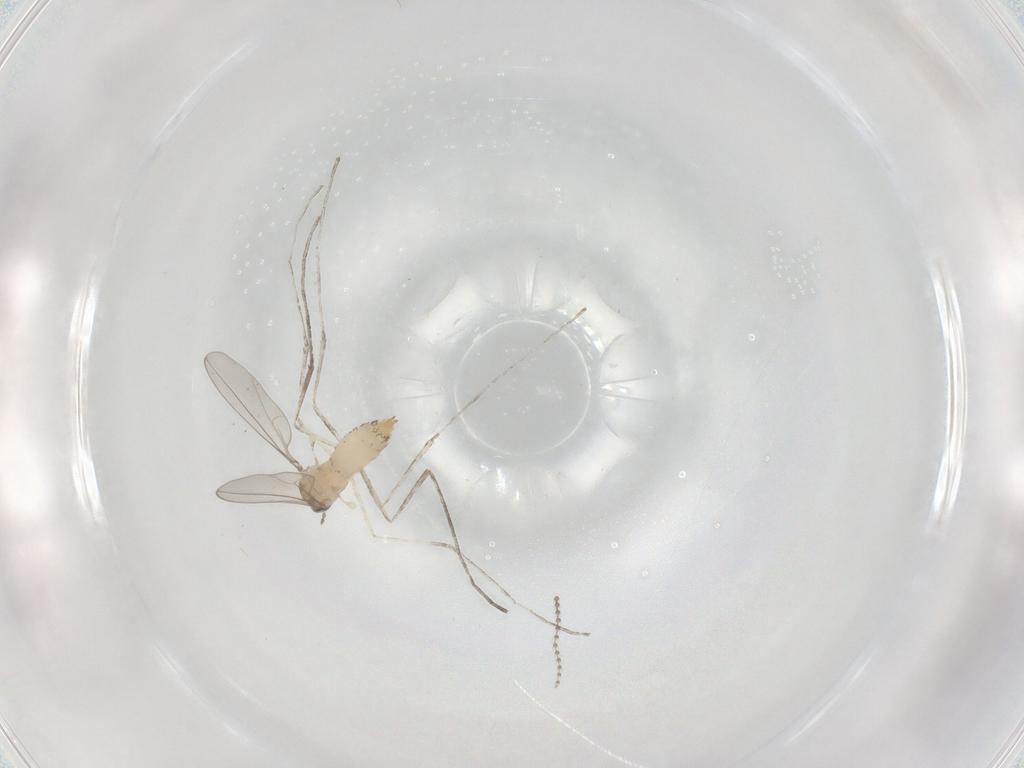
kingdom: Animalia
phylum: Arthropoda
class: Insecta
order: Diptera
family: Cecidomyiidae
